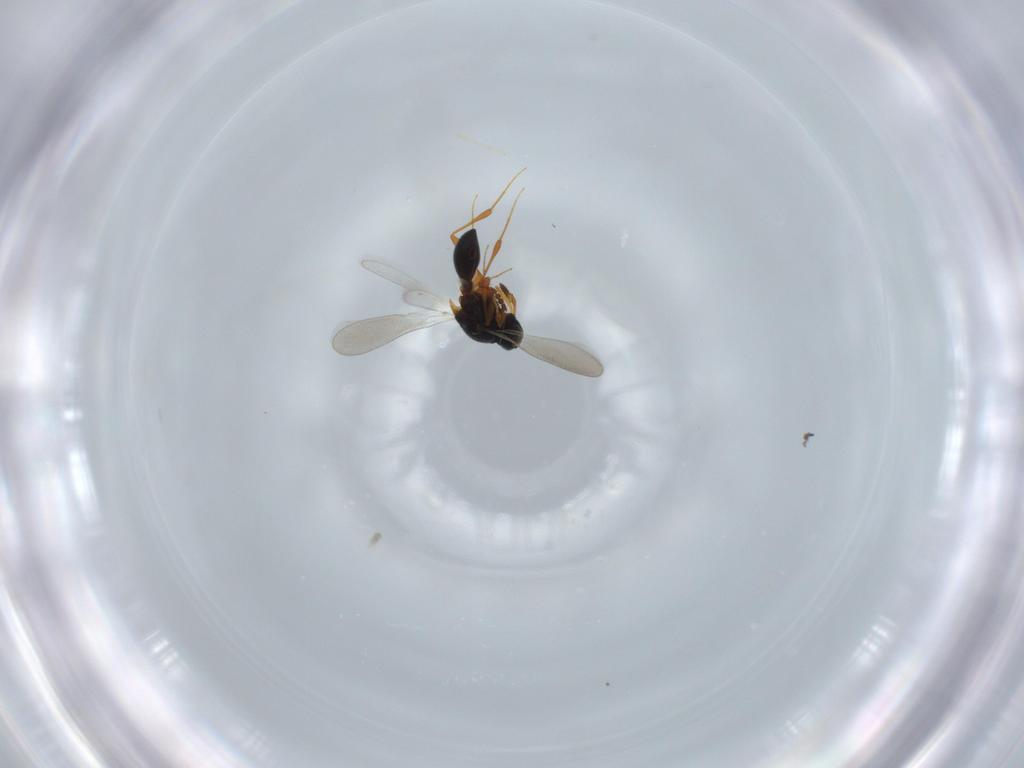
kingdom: Animalia
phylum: Arthropoda
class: Insecta
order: Hymenoptera
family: Platygastridae
